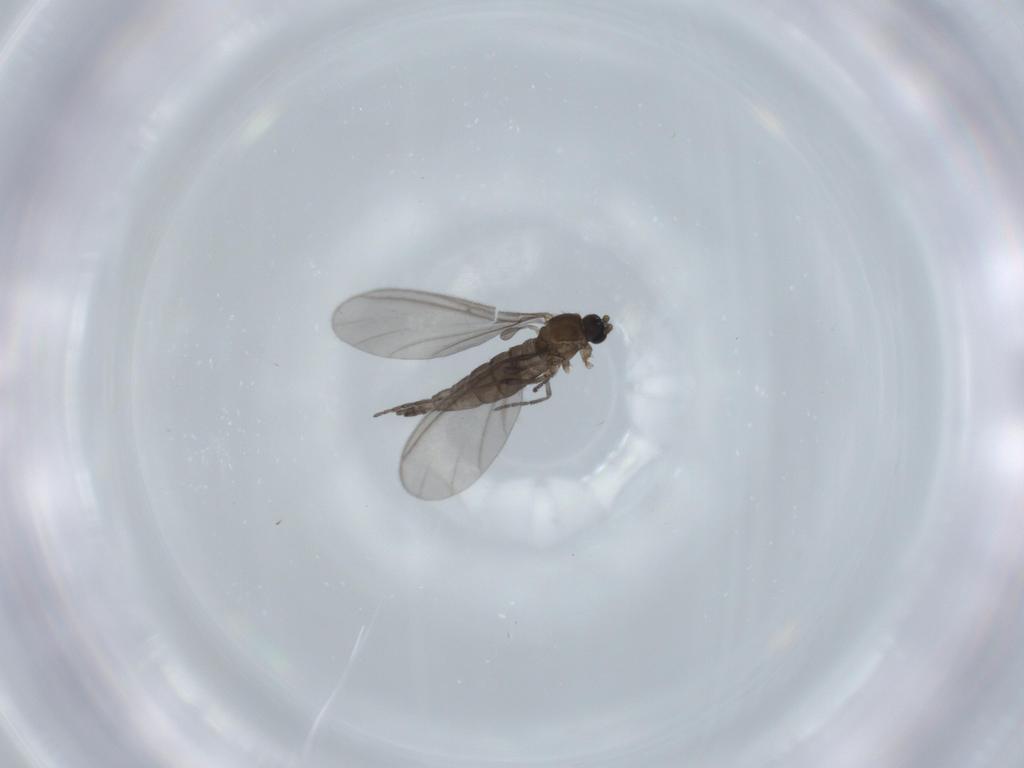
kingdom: Animalia
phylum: Arthropoda
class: Insecta
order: Diptera
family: Sciaridae
